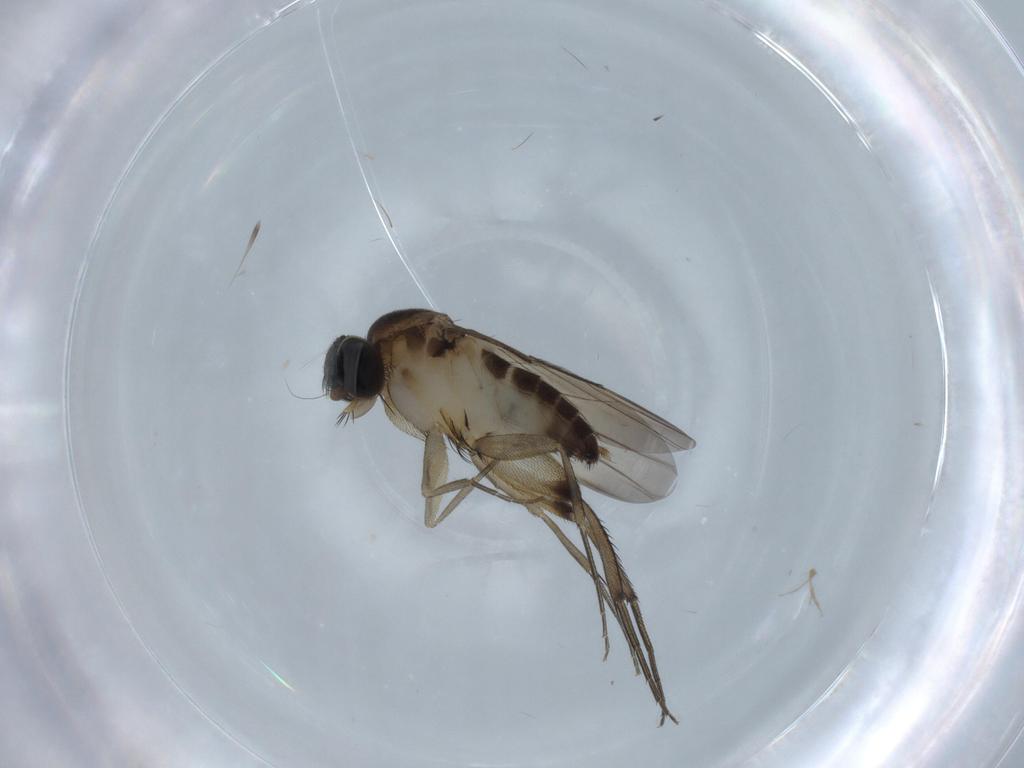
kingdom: Animalia
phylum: Arthropoda
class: Insecta
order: Diptera
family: Phoridae
